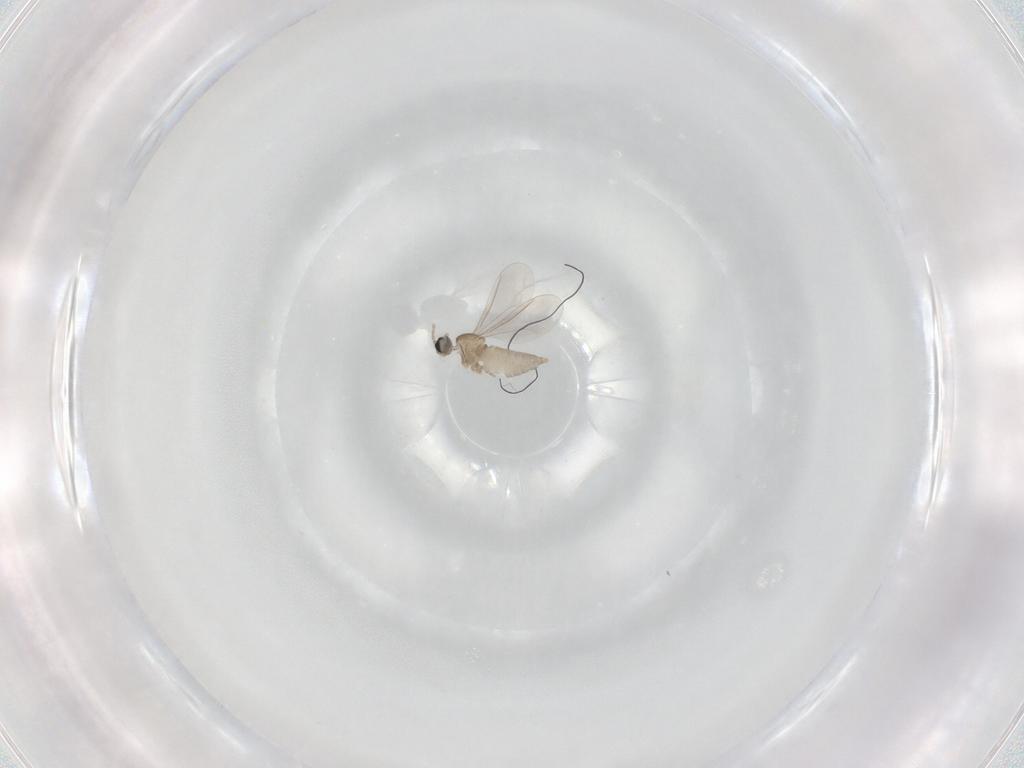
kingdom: Animalia
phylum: Arthropoda
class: Insecta
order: Diptera
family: Cecidomyiidae
